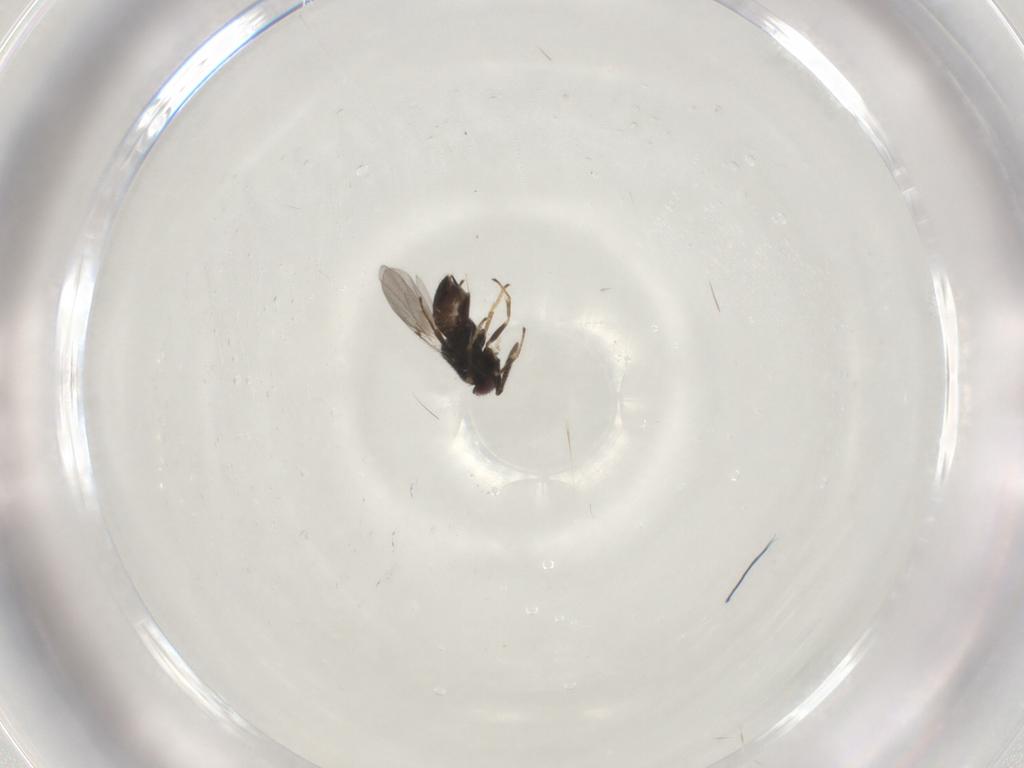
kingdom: Animalia
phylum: Arthropoda
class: Insecta
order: Hymenoptera
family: Encyrtidae
